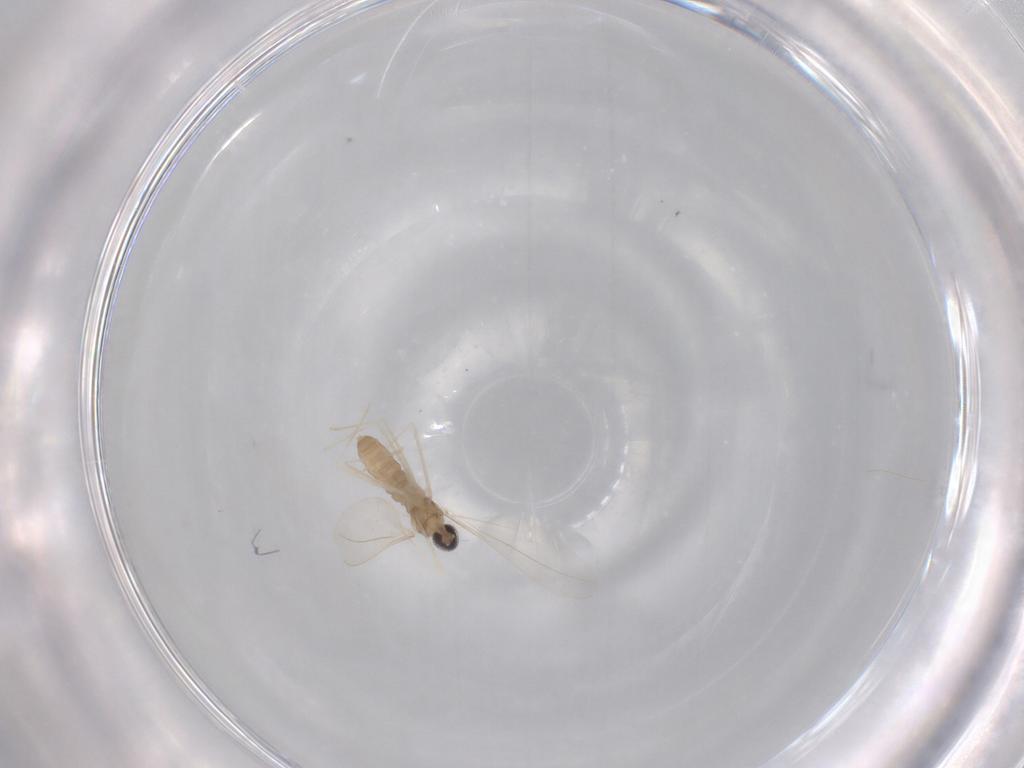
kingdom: Animalia
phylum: Arthropoda
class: Insecta
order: Diptera
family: Cecidomyiidae
